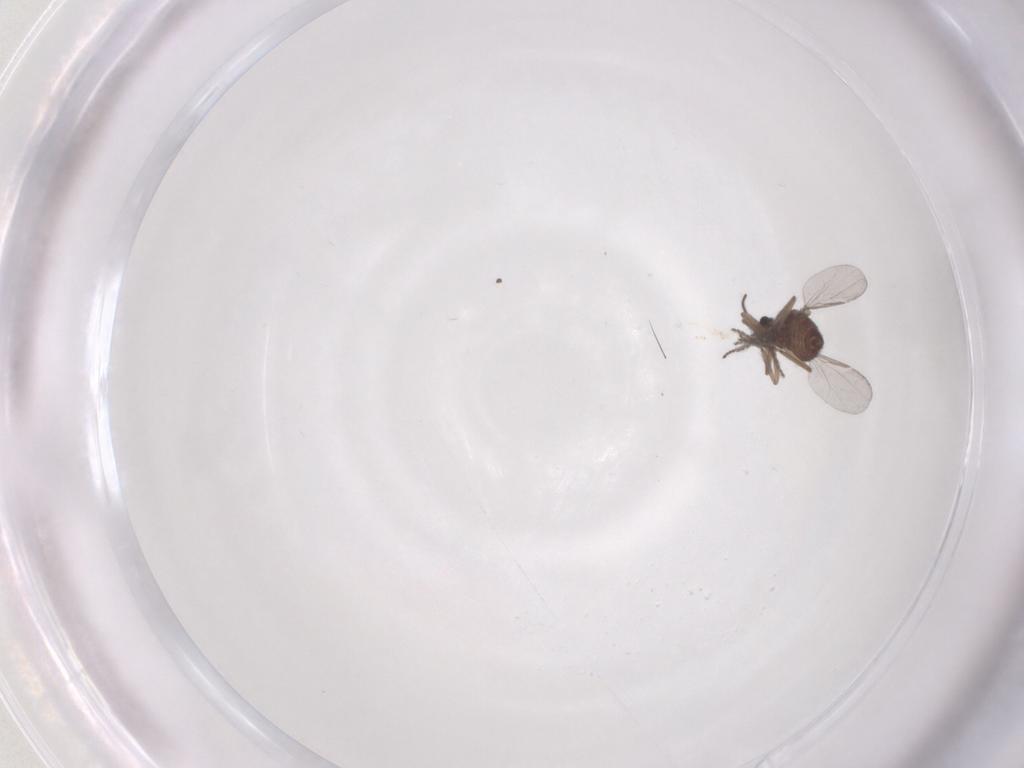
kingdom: Animalia
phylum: Arthropoda
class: Insecta
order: Diptera
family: Ceratopogonidae
